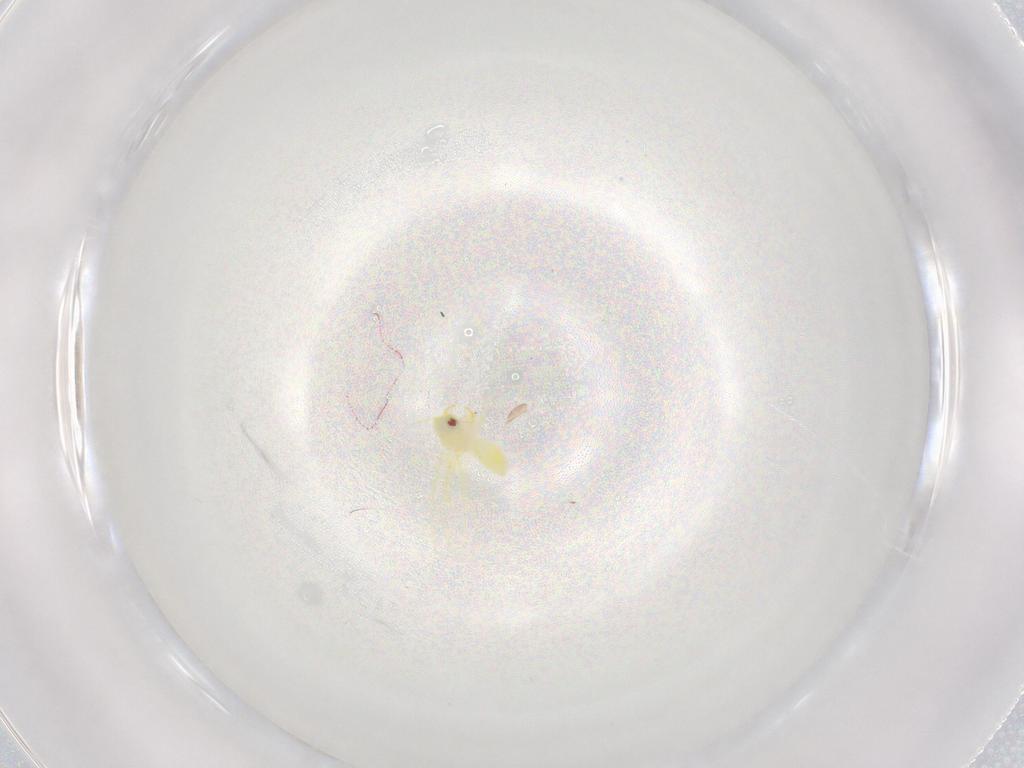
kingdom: Animalia
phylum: Arthropoda
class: Insecta
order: Hemiptera
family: Aleyrodidae
